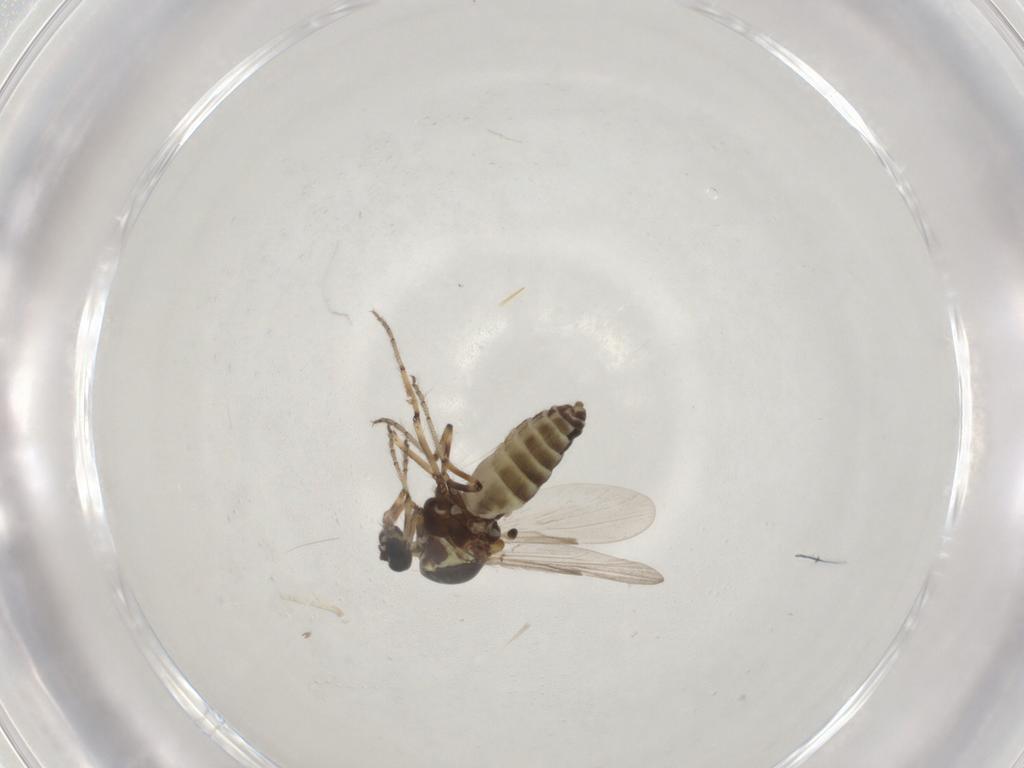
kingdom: Animalia
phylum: Arthropoda
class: Insecta
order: Diptera
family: Ceratopogonidae
